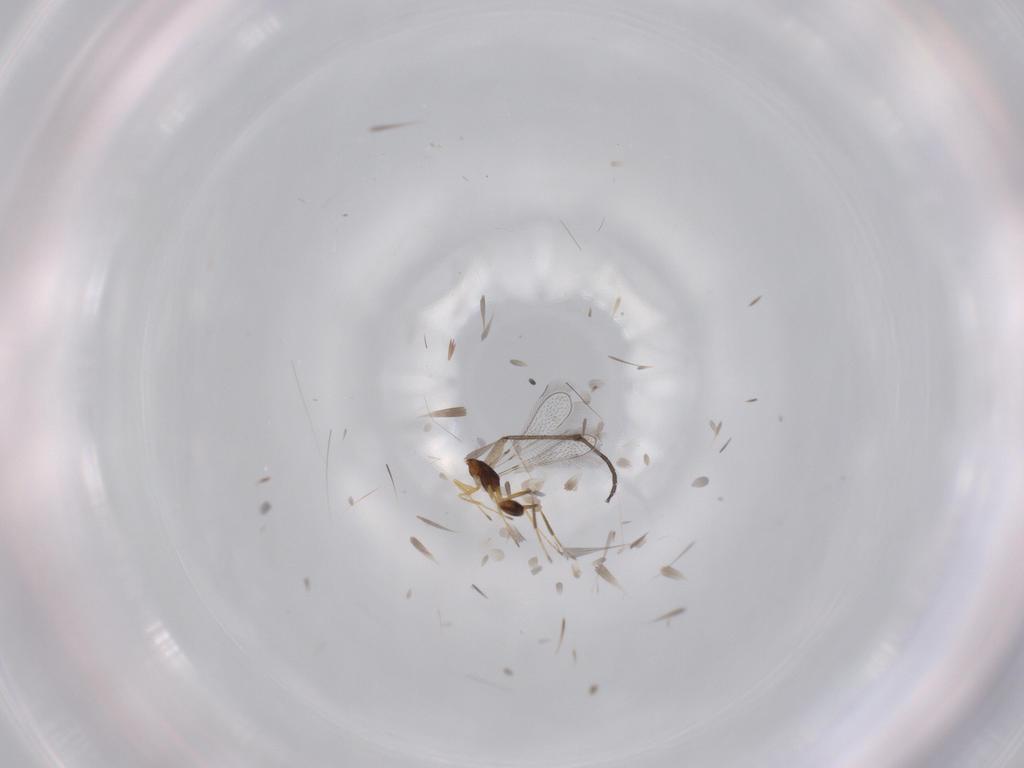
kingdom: Animalia
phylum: Arthropoda
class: Insecta
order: Hymenoptera
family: Mymaridae
